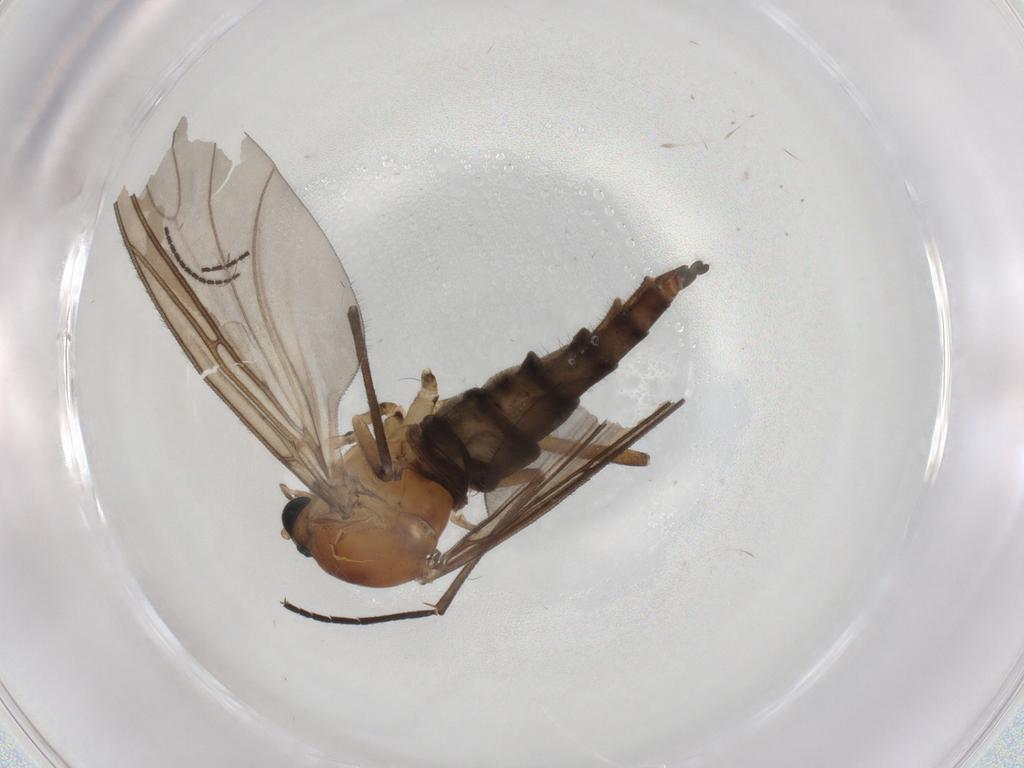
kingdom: Animalia
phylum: Arthropoda
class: Insecta
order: Diptera
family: Sciaridae
